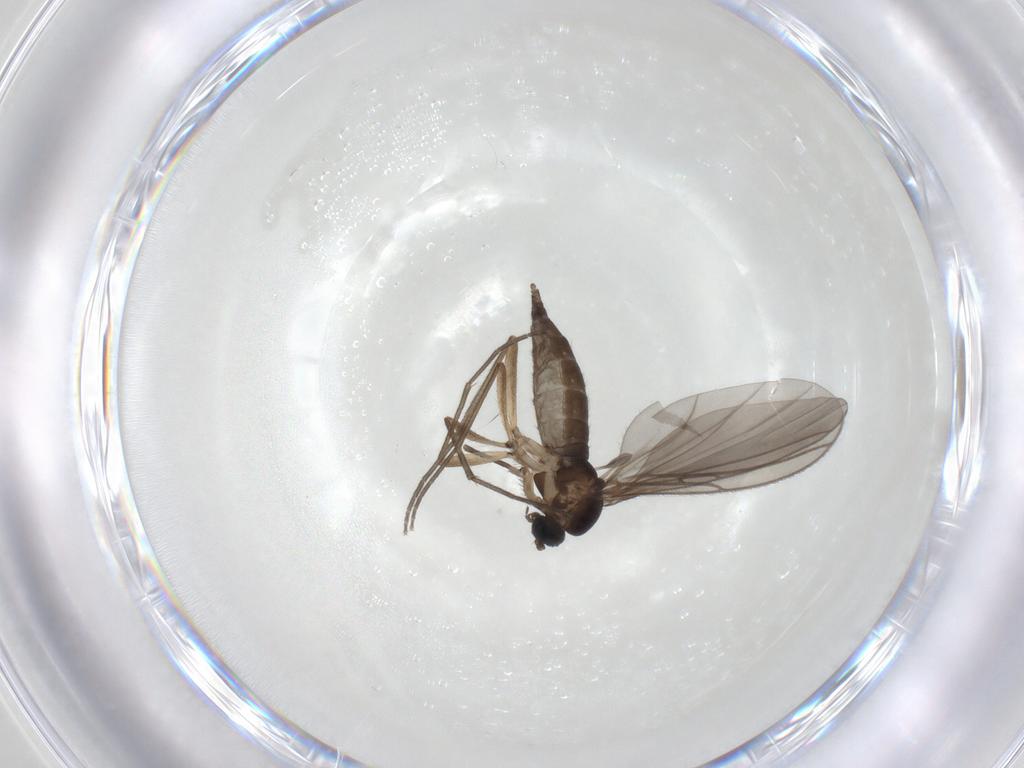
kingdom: Animalia
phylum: Arthropoda
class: Insecta
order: Diptera
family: Sciaridae
